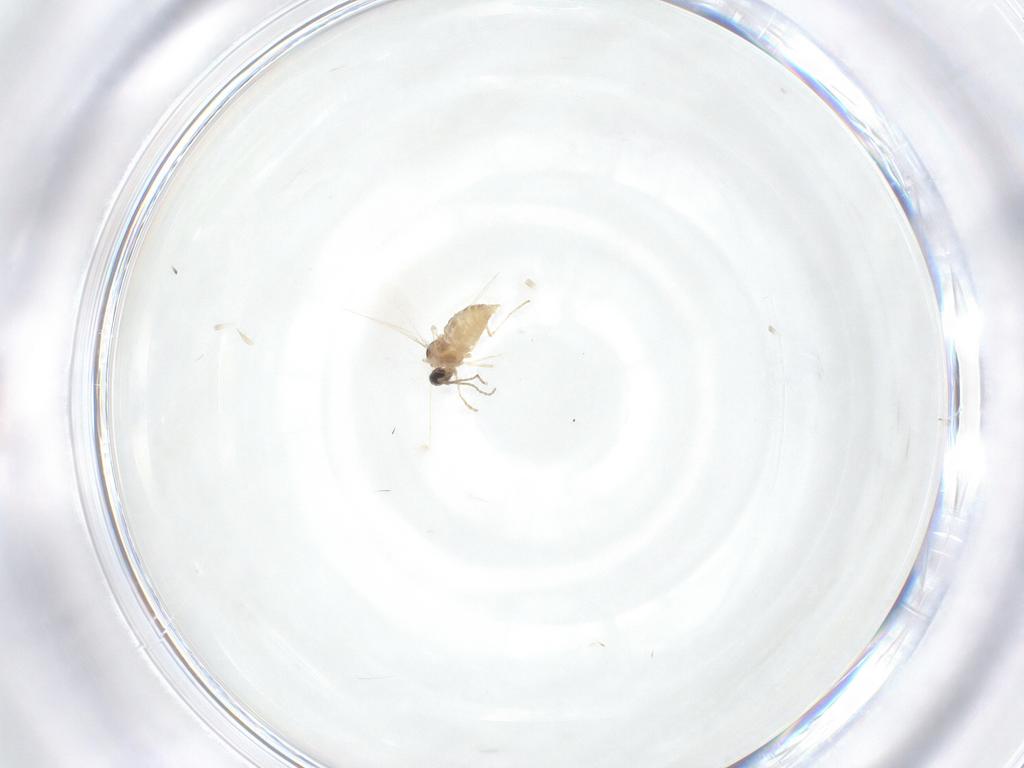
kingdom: Animalia
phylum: Arthropoda
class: Insecta
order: Diptera
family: Cecidomyiidae
